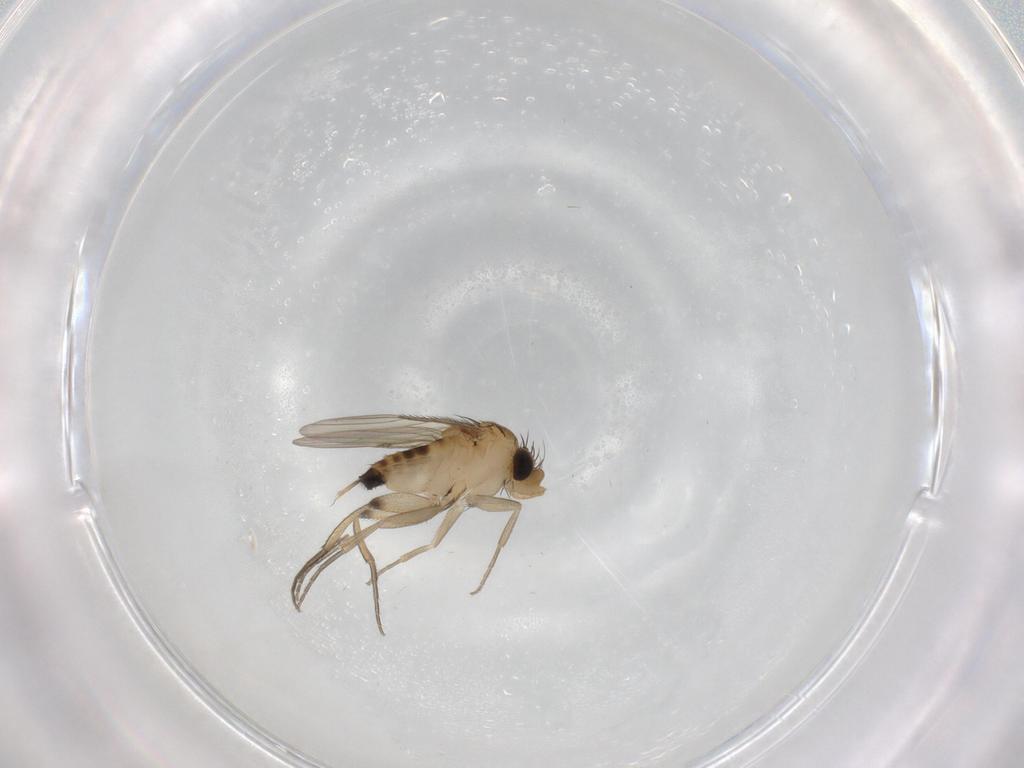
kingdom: Animalia
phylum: Arthropoda
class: Insecta
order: Diptera
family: Phoridae
